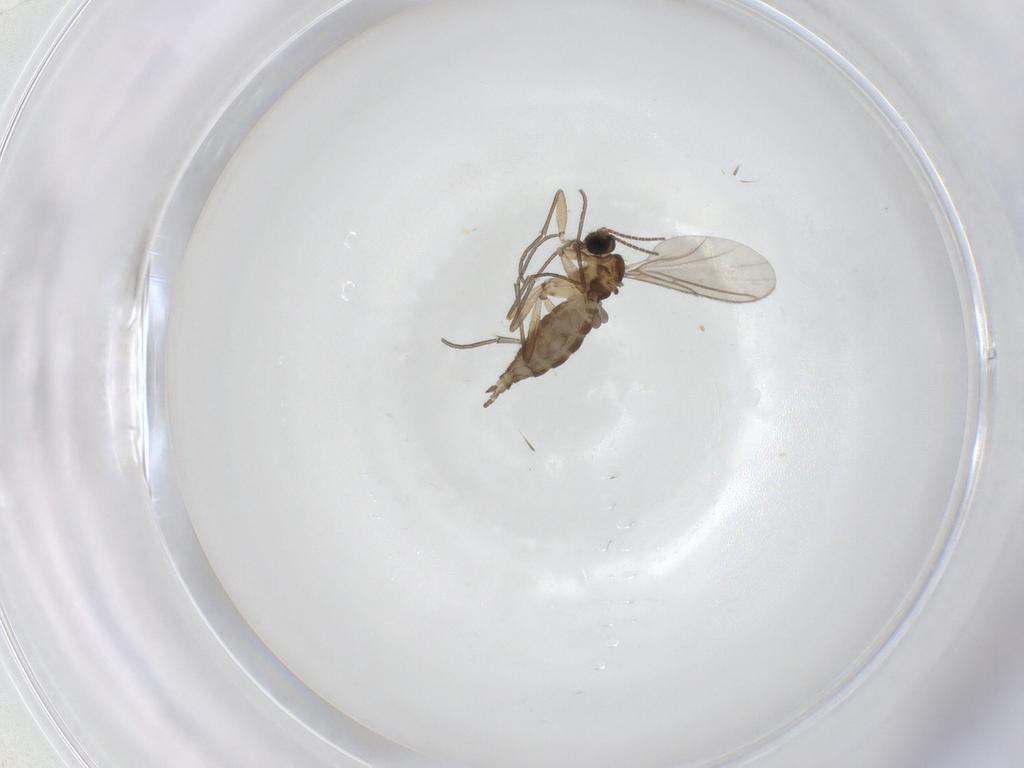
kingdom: Animalia
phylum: Arthropoda
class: Insecta
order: Diptera
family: Sciaridae
